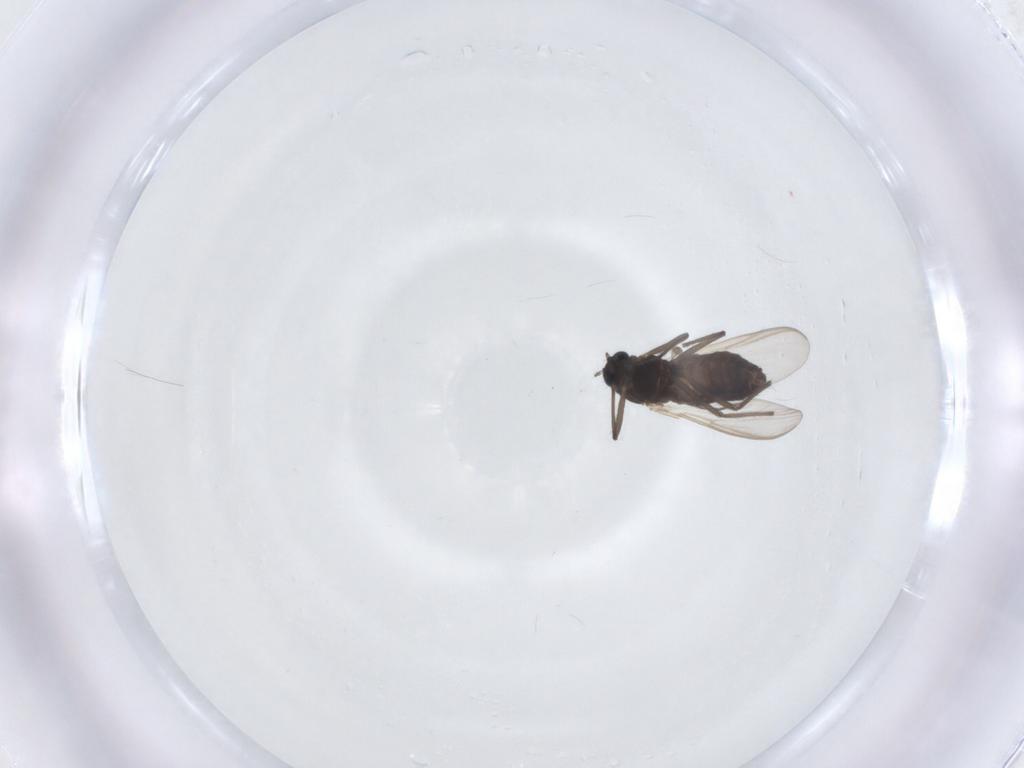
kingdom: Animalia
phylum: Arthropoda
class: Insecta
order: Diptera
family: Chironomidae
